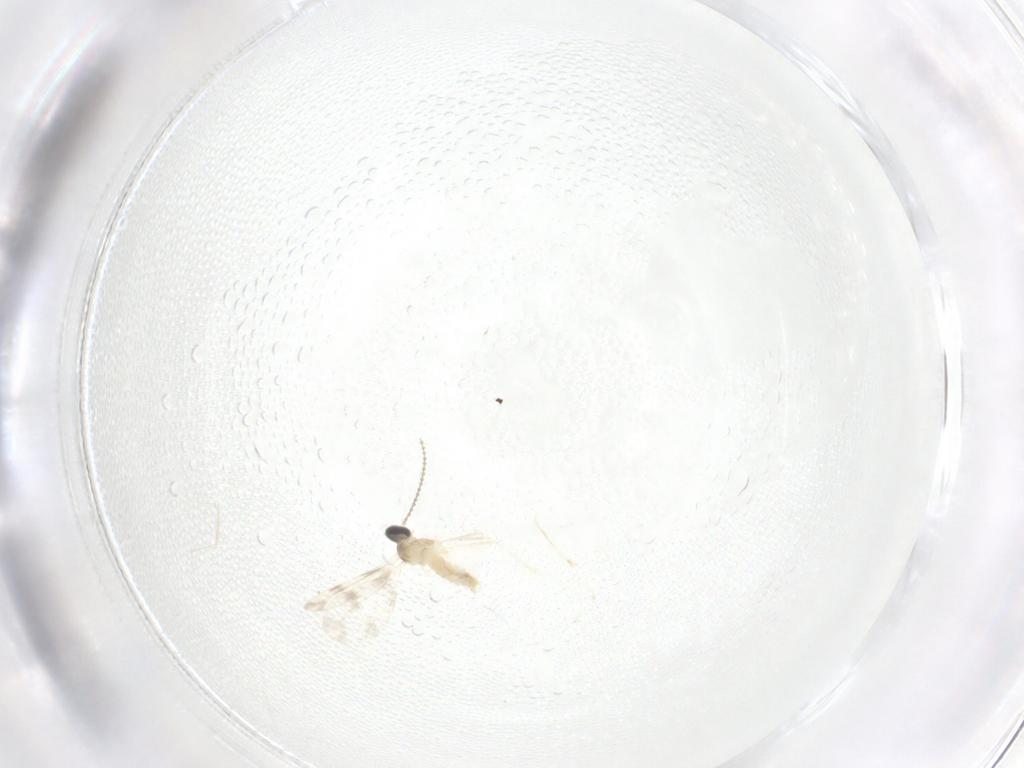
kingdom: Animalia
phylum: Arthropoda
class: Insecta
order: Diptera
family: Cecidomyiidae
